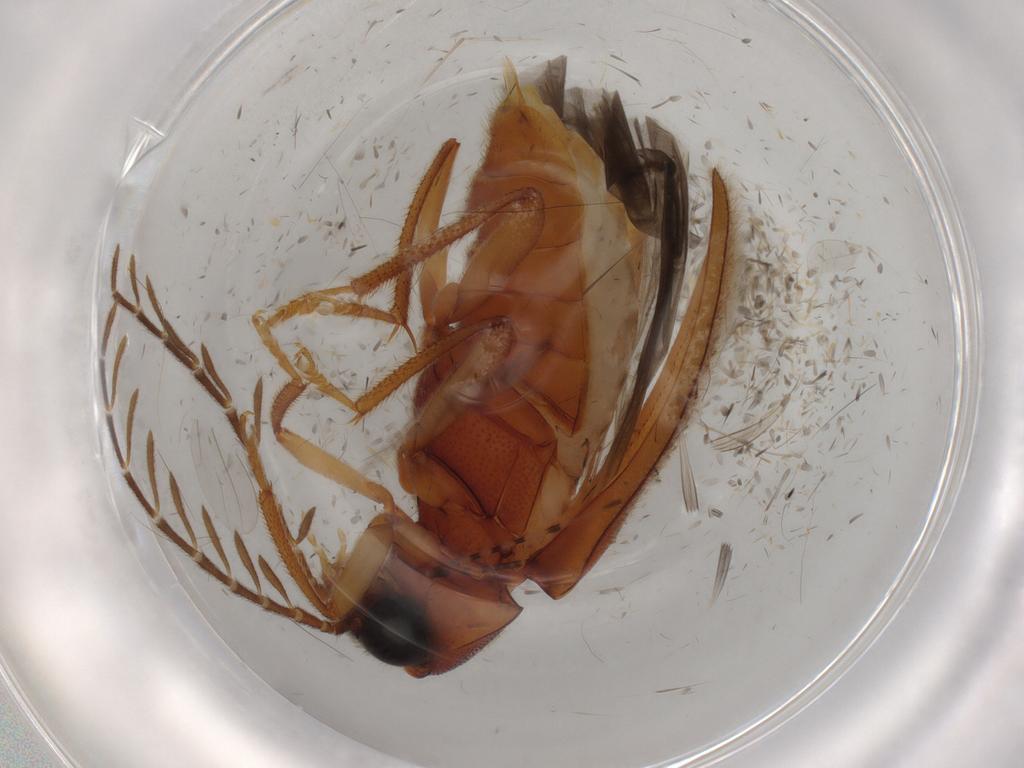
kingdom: Animalia
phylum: Arthropoda
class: Insecta
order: Coleoptera
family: Ptilodactylidae
